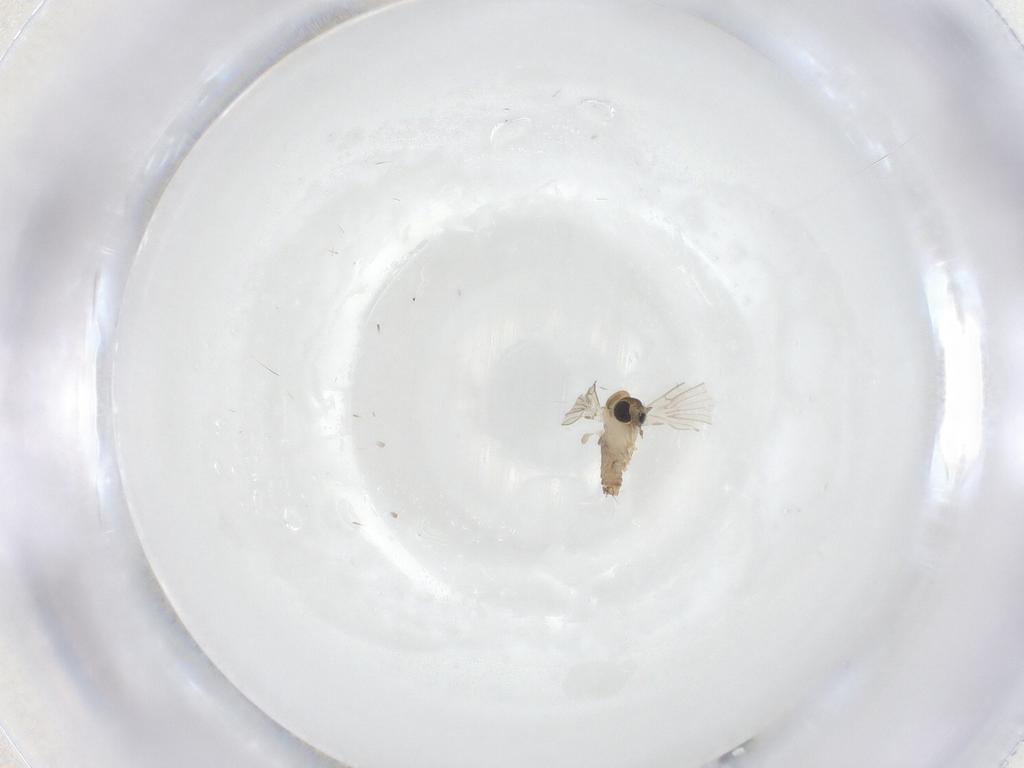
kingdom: Animalia
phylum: Arthropoda
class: Insecta
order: Diptera
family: Psychodidae
